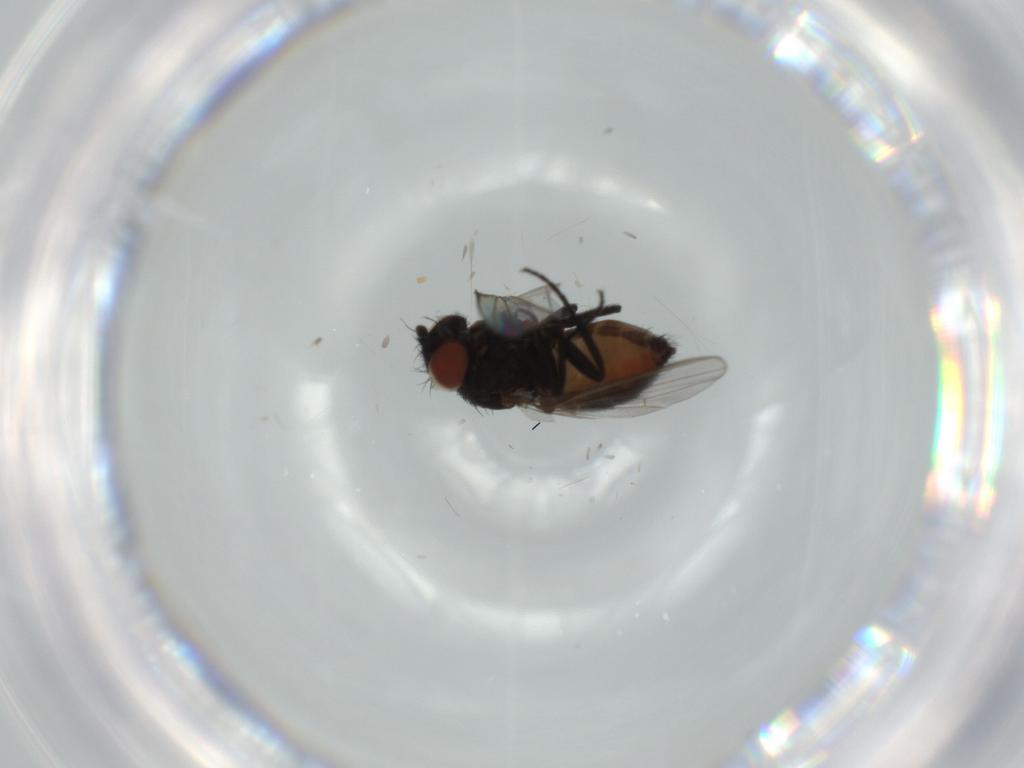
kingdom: Animalia
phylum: Arthropoda
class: Insecta
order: Diptera
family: Milichiidae
